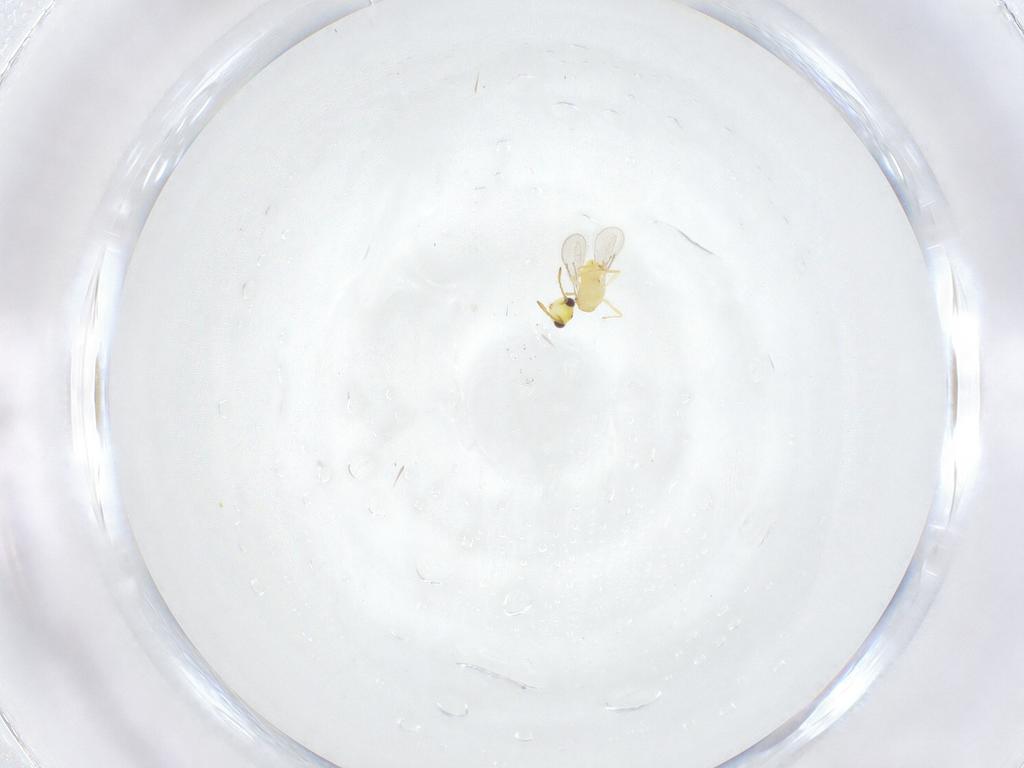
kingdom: Animalia
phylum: Arthropoda
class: Insecta
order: Hymenoptera
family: Aphelinidae
